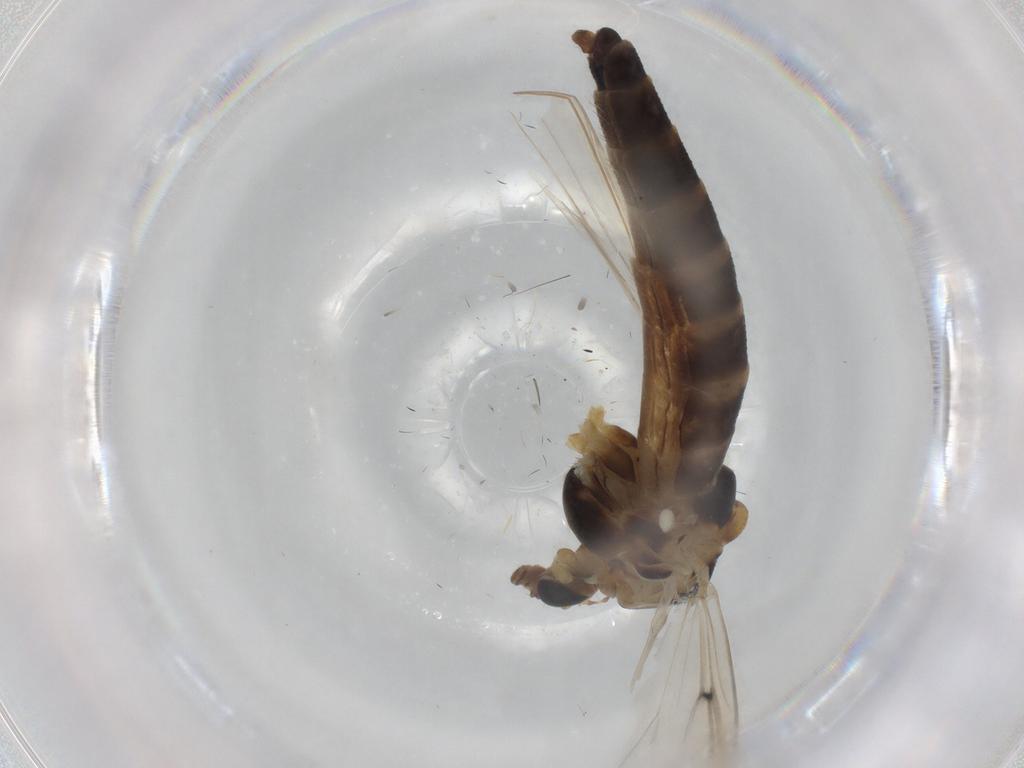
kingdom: Animalia
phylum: Arthropoda
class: Insecta
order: Diptera
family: Chironomidae
